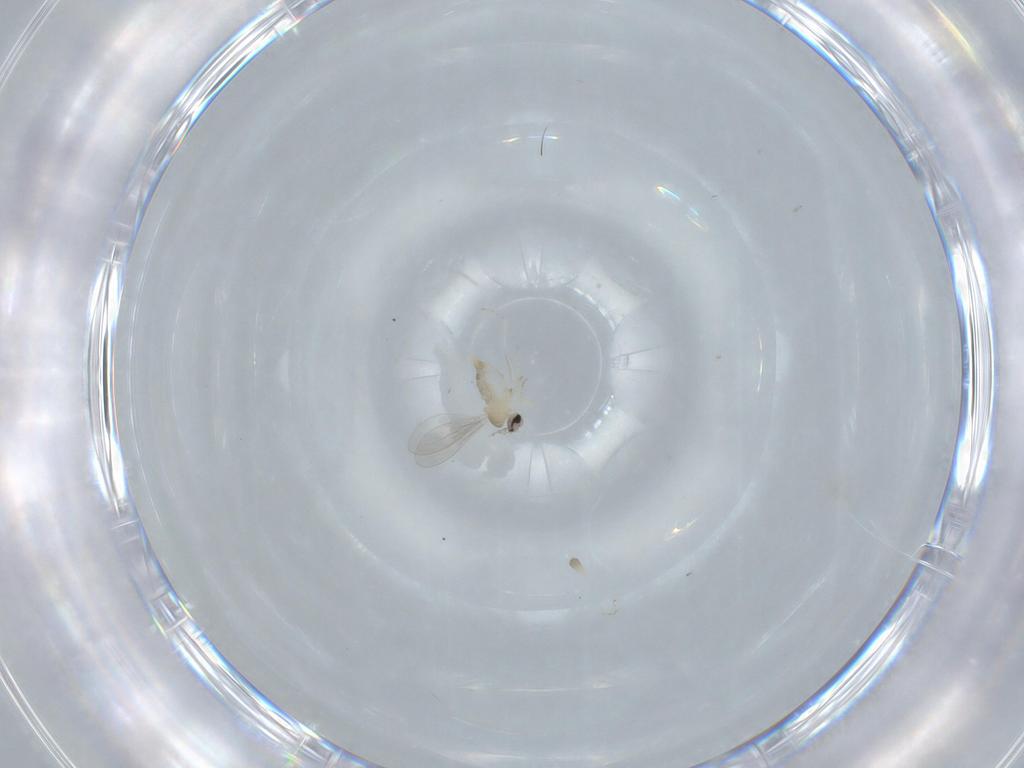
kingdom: Animalia
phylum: Arthropoda
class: Insecta
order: Diptera
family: Cecidomyiidae
